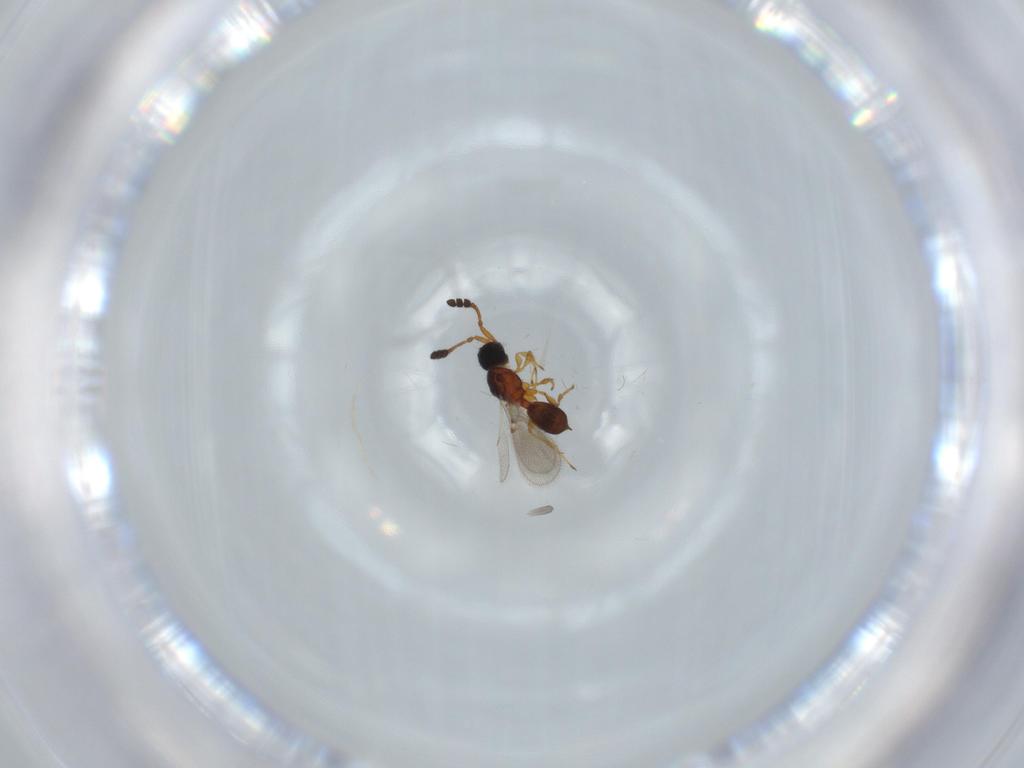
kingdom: Animalia
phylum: Arthropoda
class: Insecta
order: Hymenoptera
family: Diapriidae
